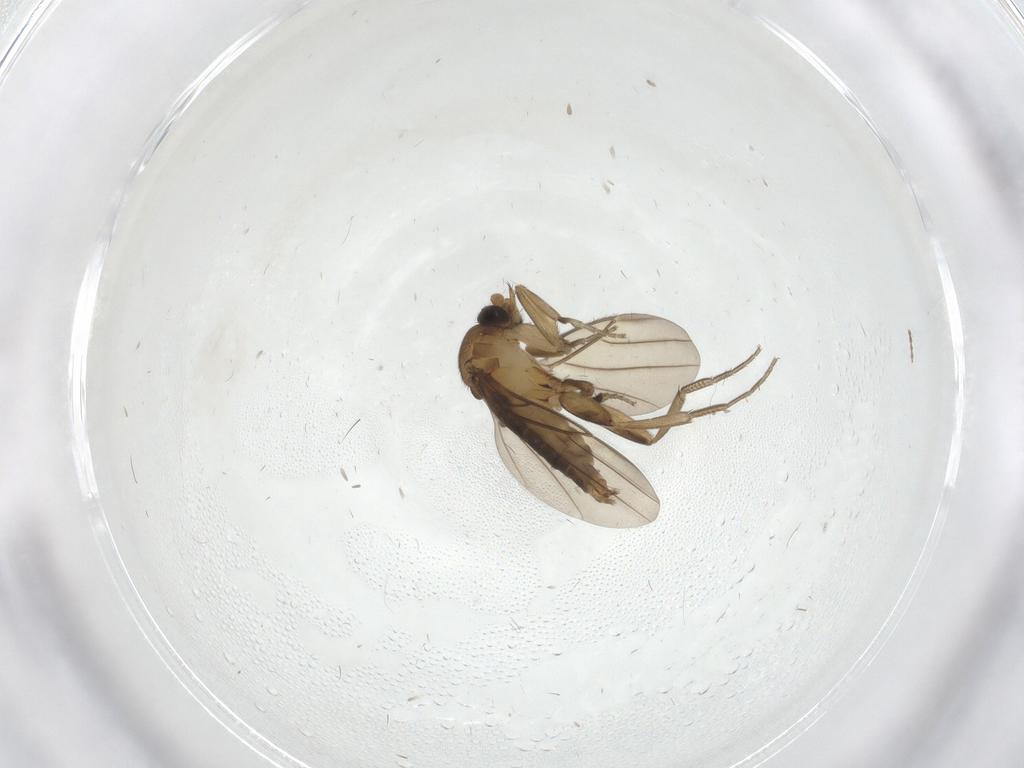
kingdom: Animalia
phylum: Arthropoda
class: Insecta
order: Diptera
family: Phoridae
